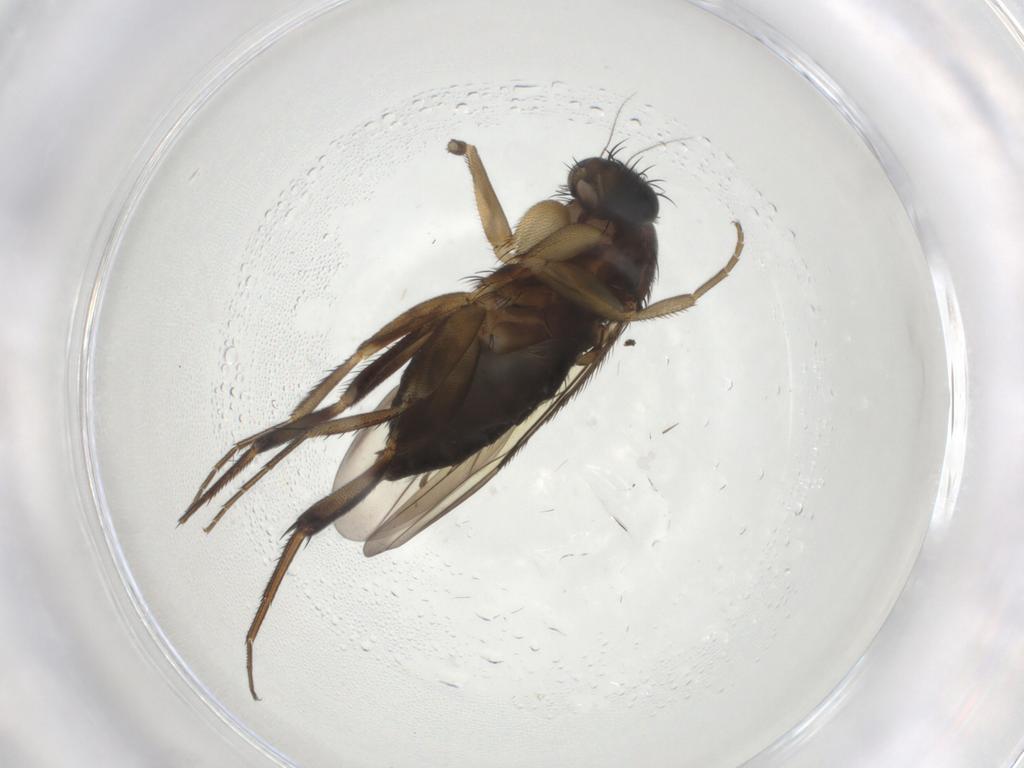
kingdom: Animalia
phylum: Arthropoda
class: Insecta
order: Diptera
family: Phoridae
